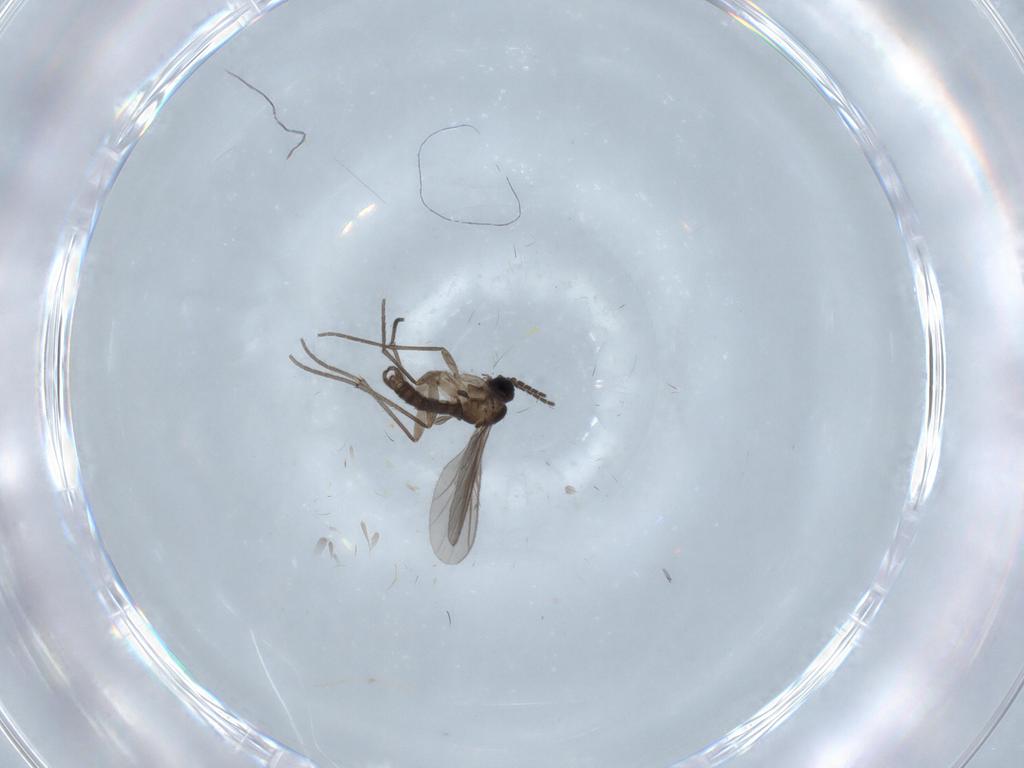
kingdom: Animalia
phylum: Arthropoda
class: Insecta
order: Diptera
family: Sciaridae
